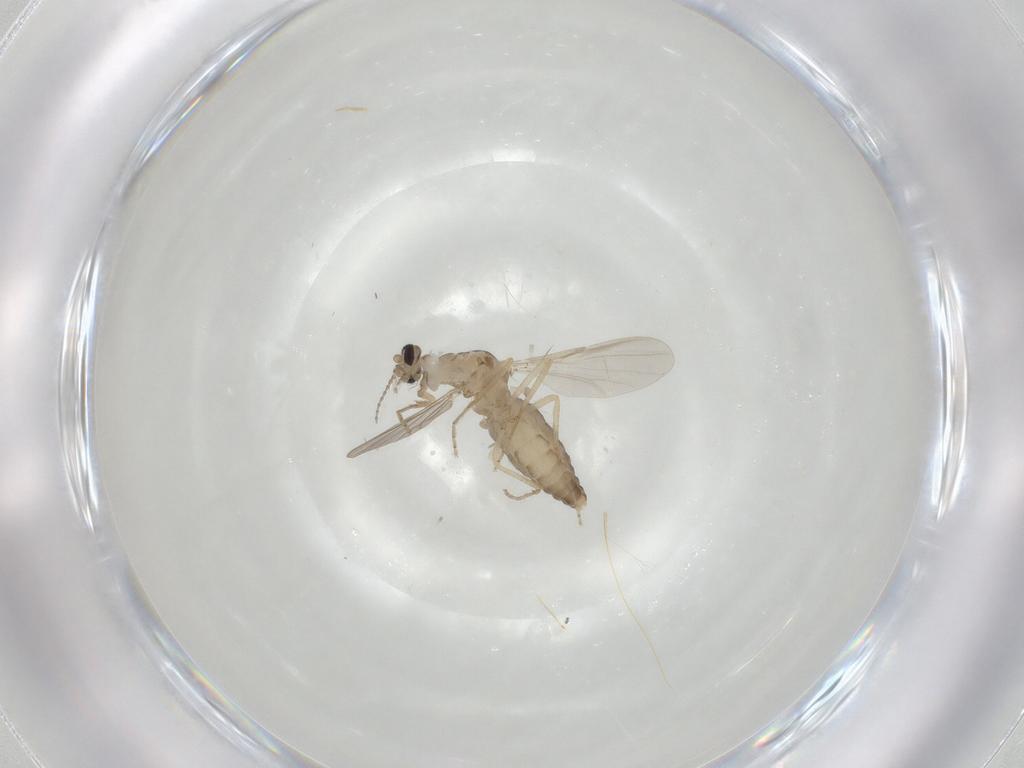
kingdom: Animalia
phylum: Arthropoda
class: Insecta
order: Diptera
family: Ceratopogonidae
